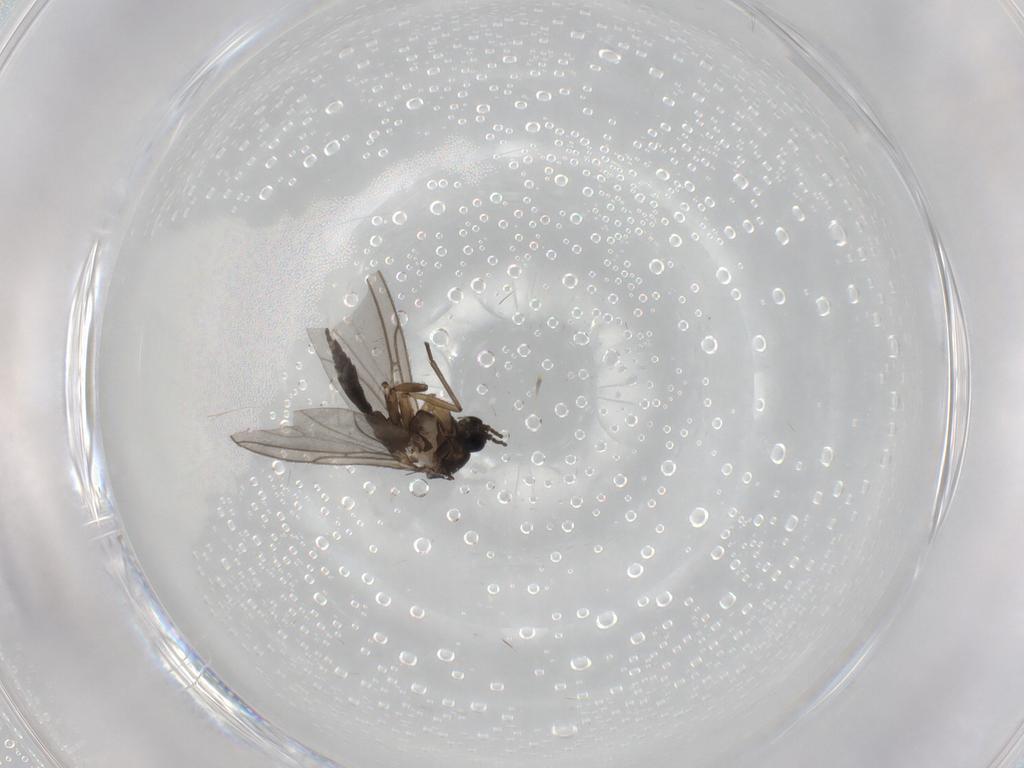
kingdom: Animalia
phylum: Arthropoda
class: Insecta
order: Diptera
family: Sciaridae
